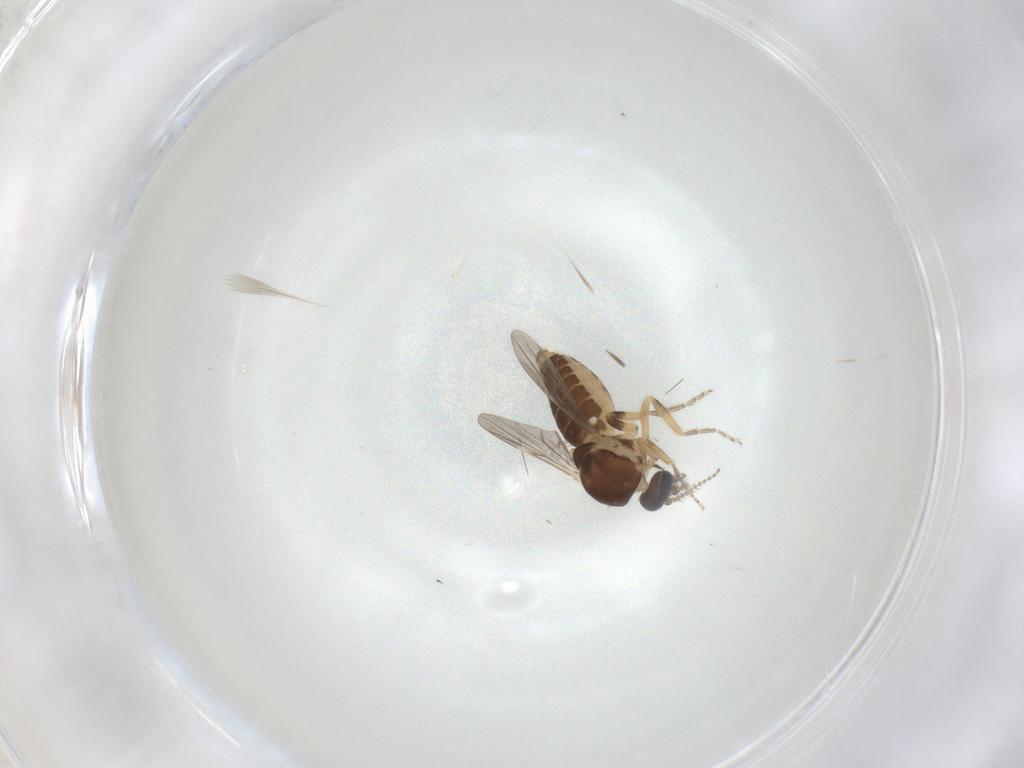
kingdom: Animalia
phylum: Arthropoda
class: Insecta
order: Diptera
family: Ceratopogonidae
